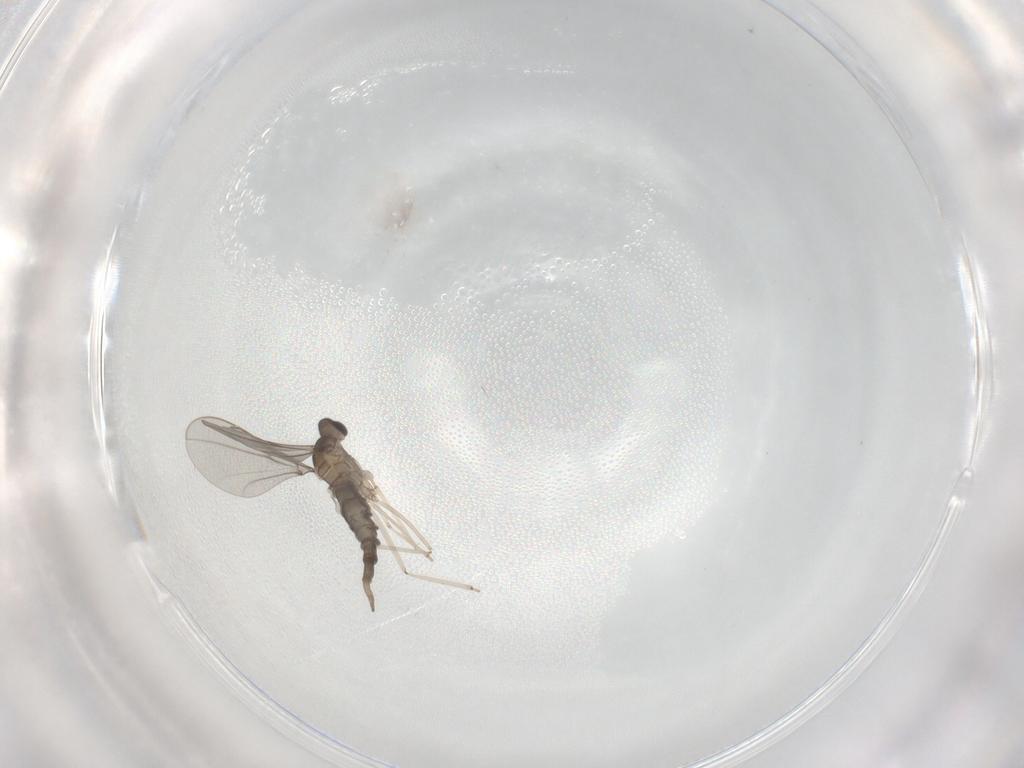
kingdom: Animalia
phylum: Arthropoda
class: Insecta
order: Diptera
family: Cecidomyiidae
